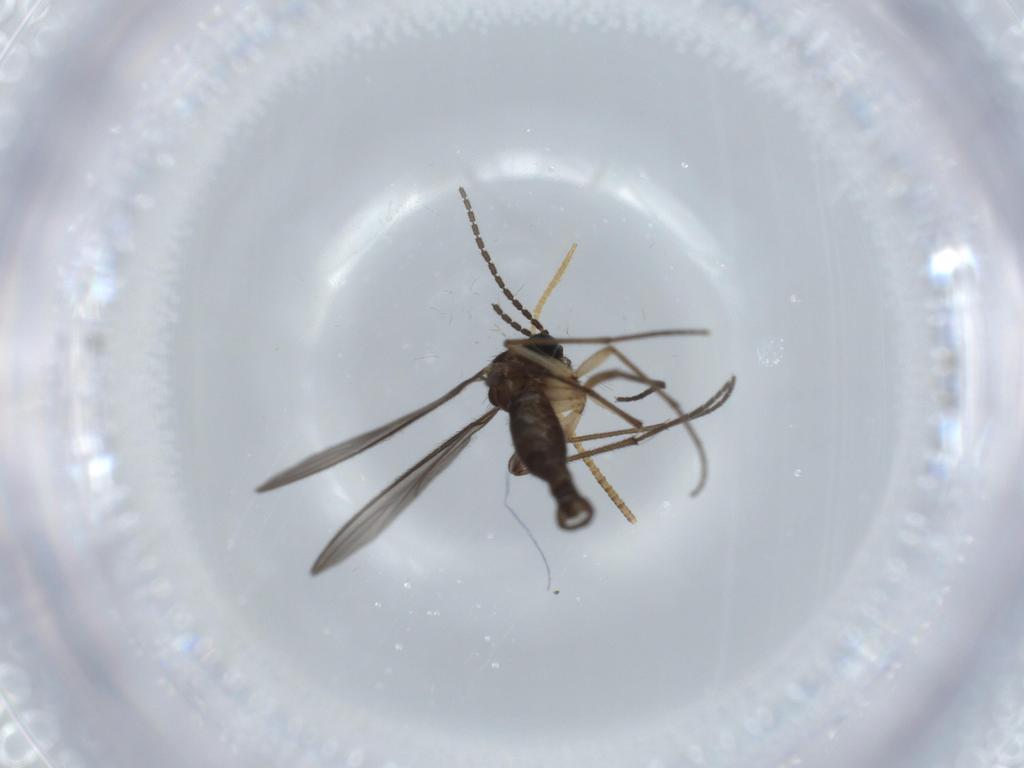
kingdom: Animalia
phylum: Arthropoda
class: Insecta
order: Diptera
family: Sciaridae
